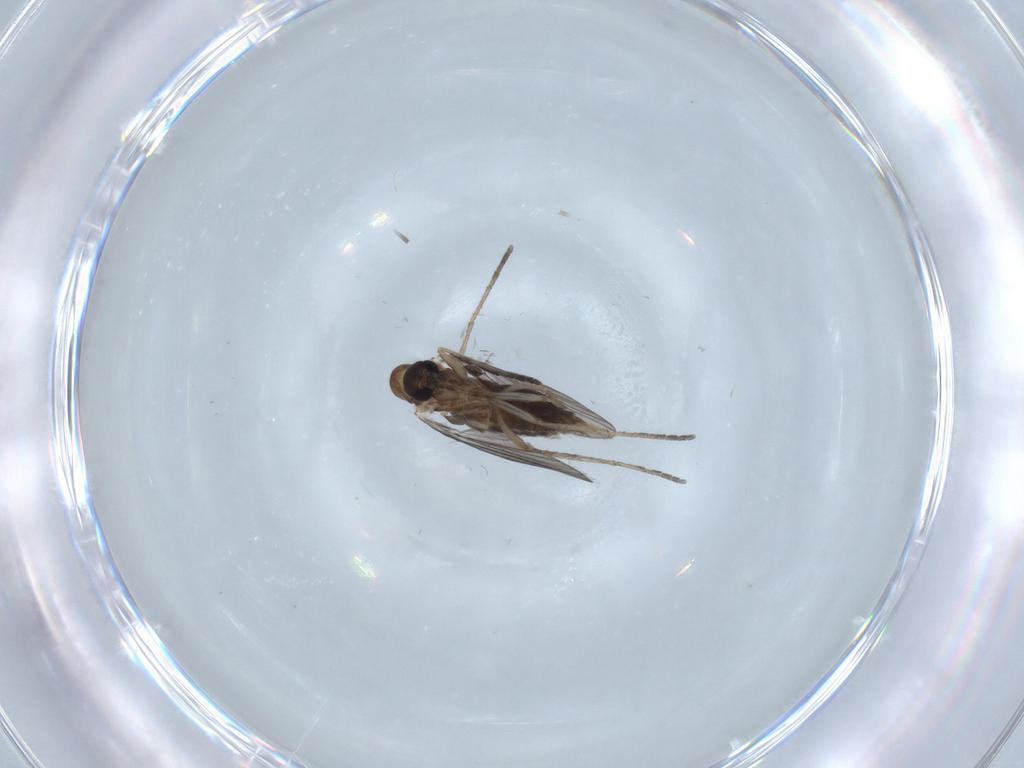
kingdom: Animalia
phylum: Arthropoda
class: Insecta
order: Diptera
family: Psychodidae
